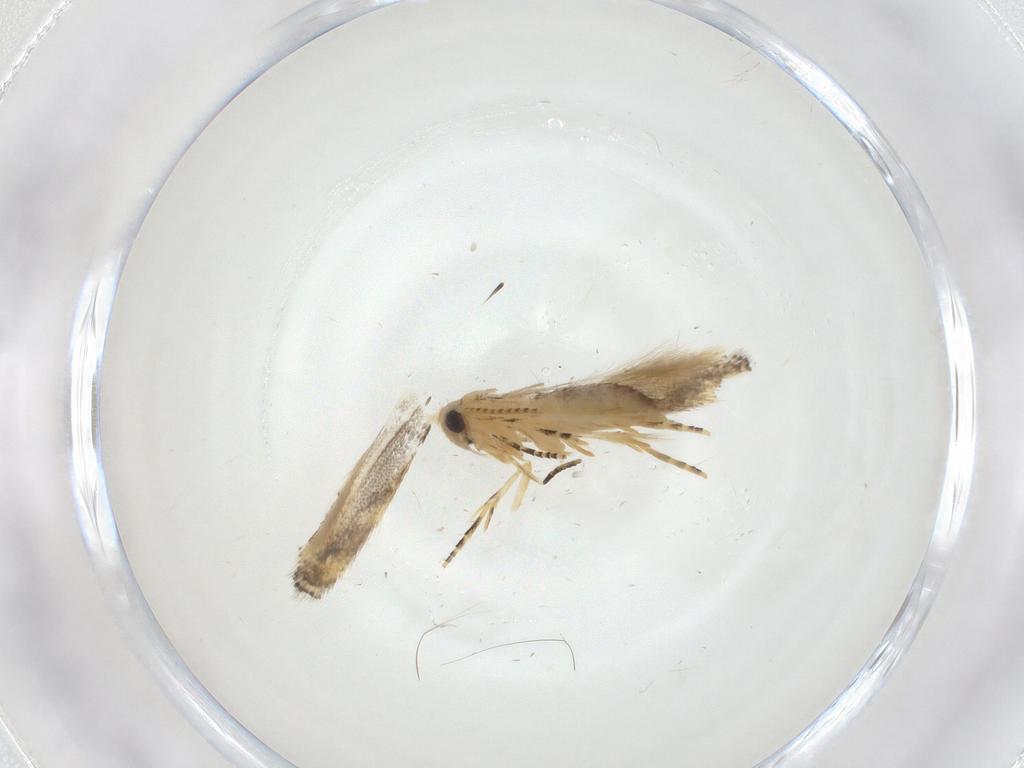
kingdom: Animalia
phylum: Arthropoda
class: Insecta
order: Lepidoptera
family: Bucculatricidae
